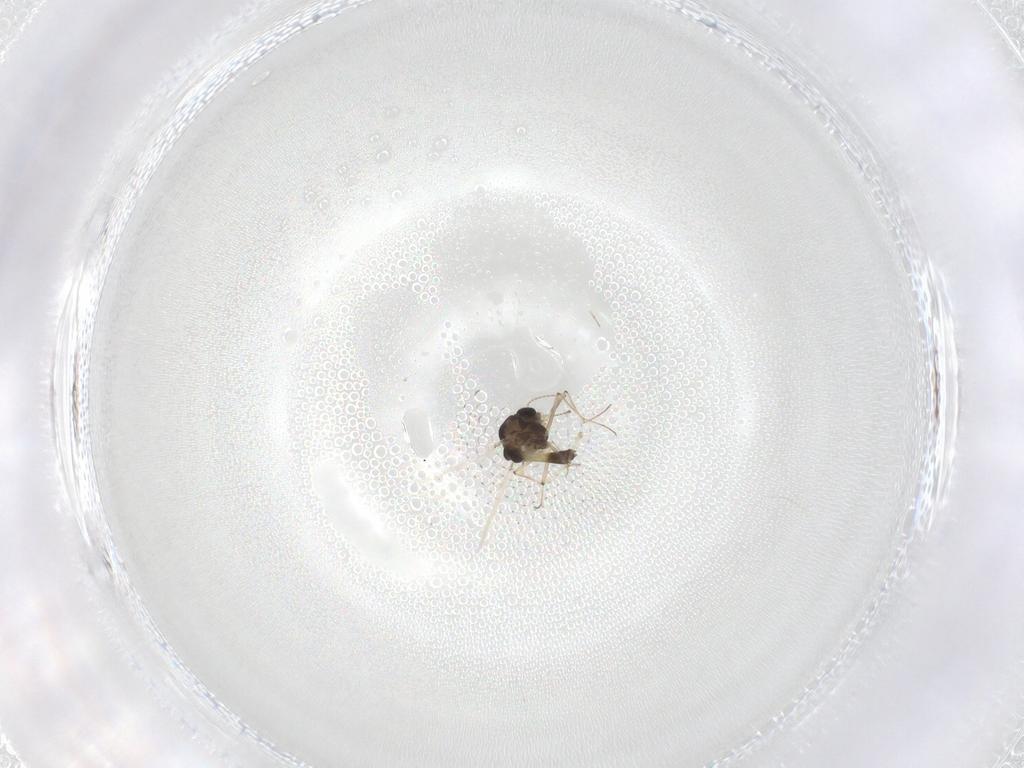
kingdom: Animalia
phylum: Arthropoda
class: Insecta
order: Diptera
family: Chironomidae
